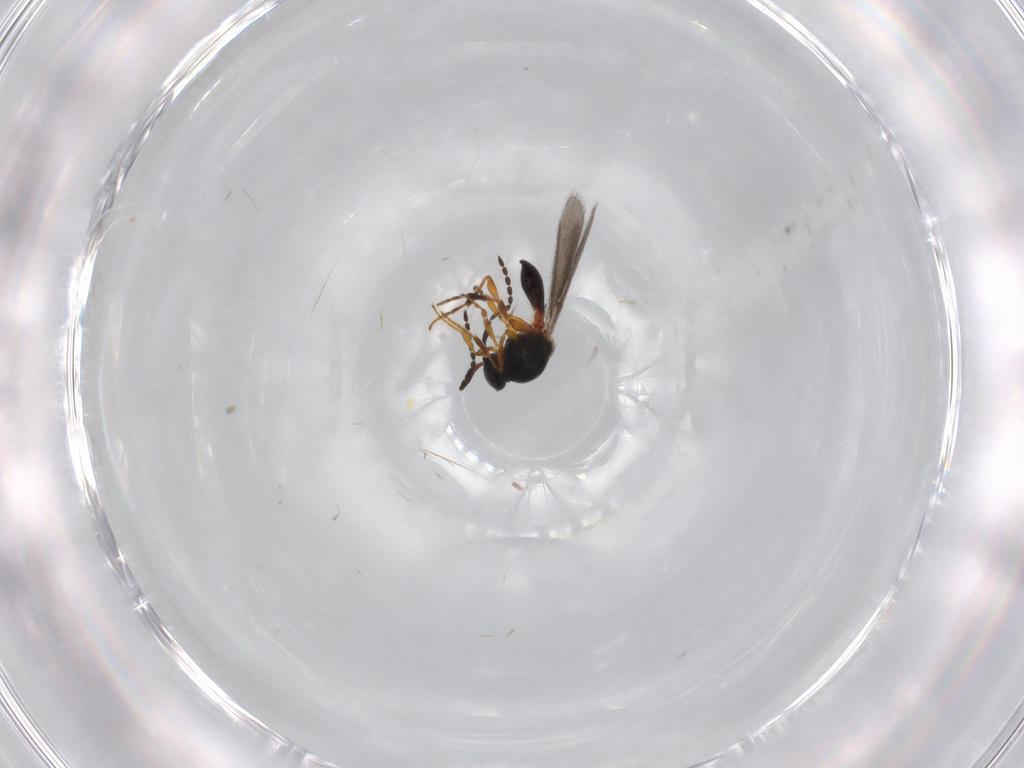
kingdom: Animalia
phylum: Arthropoda
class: Insecta
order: Hymenoptera
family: Platygastridae
